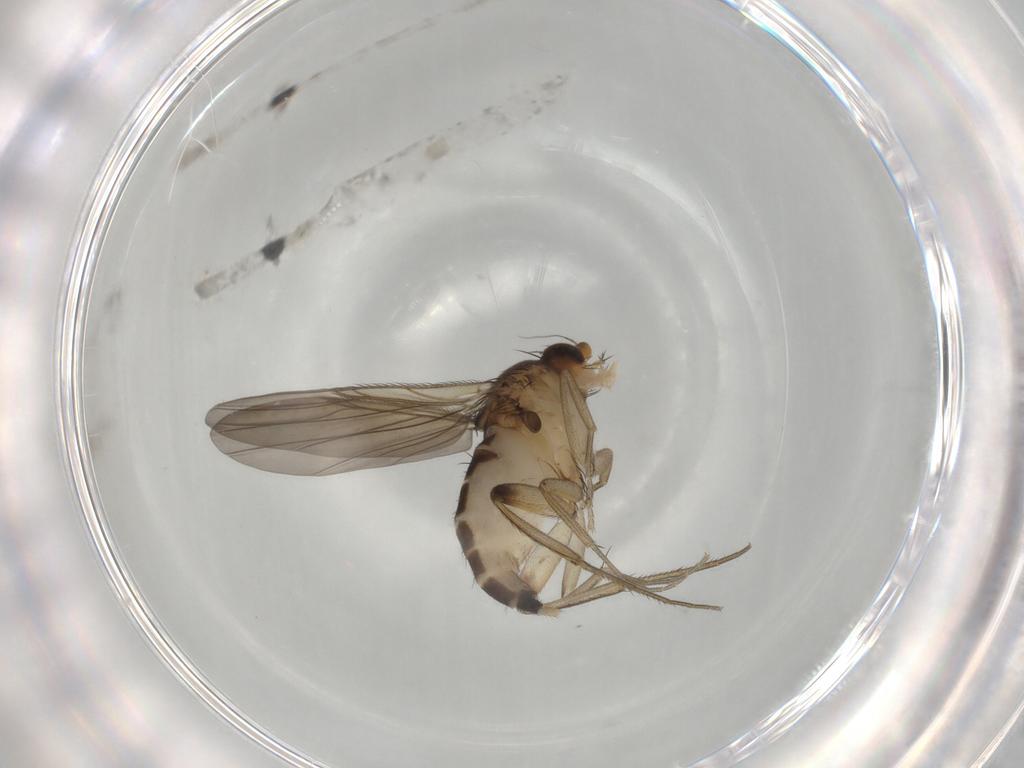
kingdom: Animalia
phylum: Arthropoda
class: Insecta
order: Diptera
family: Phoridae
